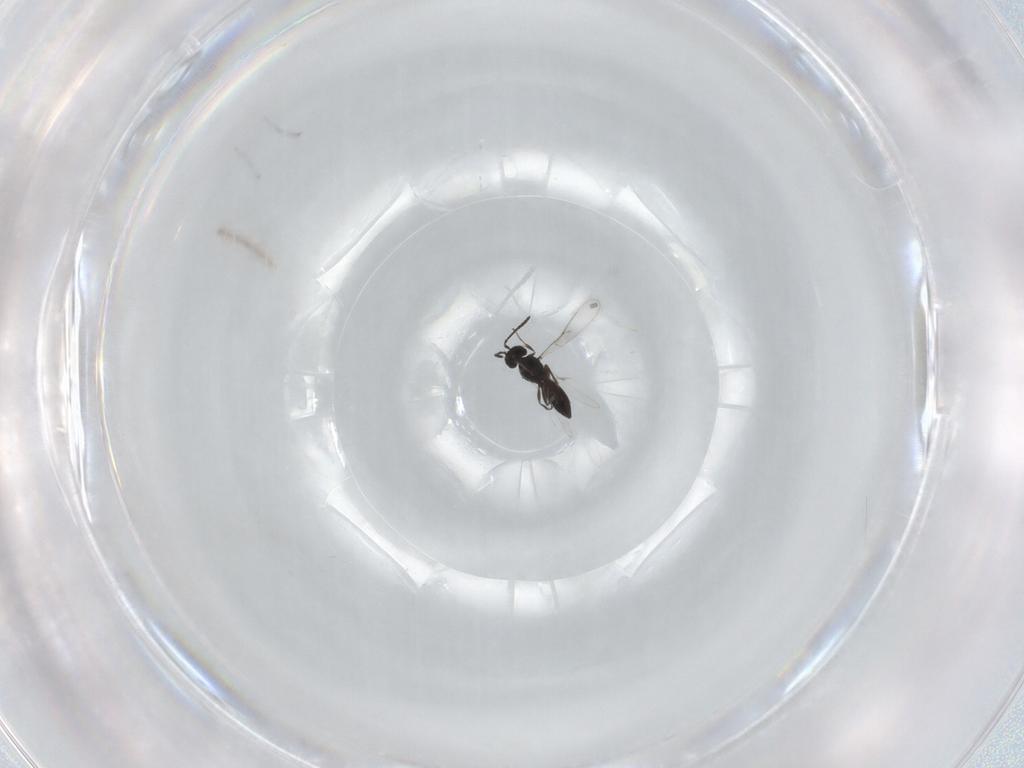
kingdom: Animalia
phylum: Arthropoda
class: Insecta
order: Hymenoptera
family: Scelionidae
